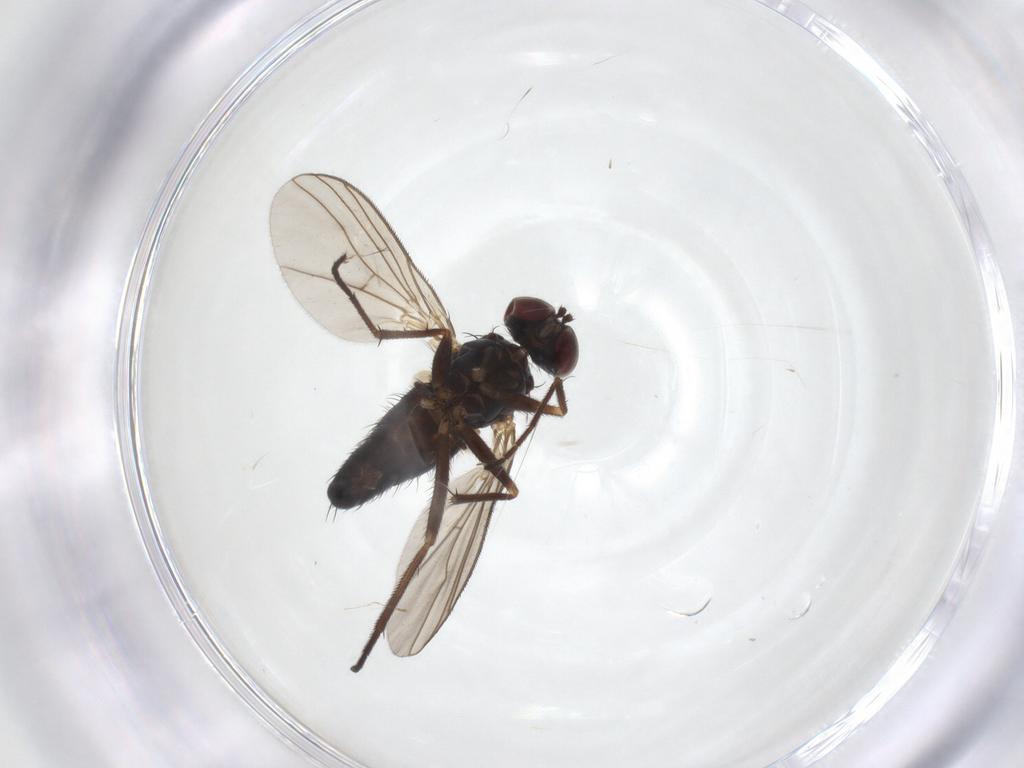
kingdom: Animalia
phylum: Arthropoda
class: Insecta
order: Diptera
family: Dolichopodidae
